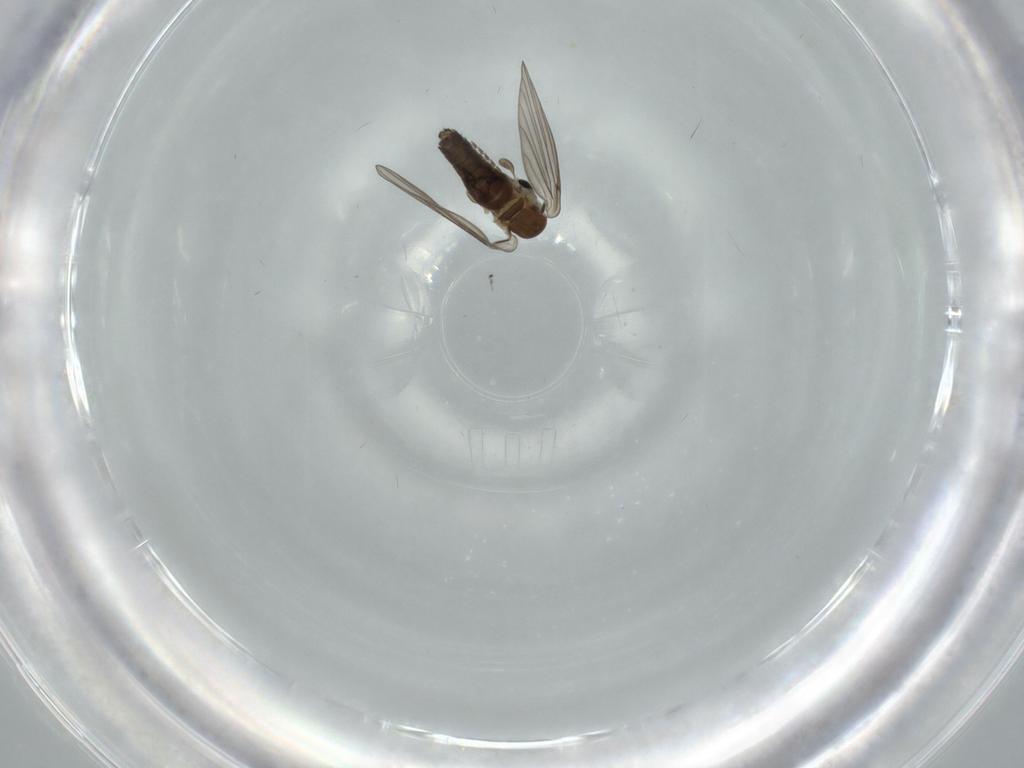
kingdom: Animalia
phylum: Arthropoda
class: Insecta
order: Diptera
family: Psychodidae
